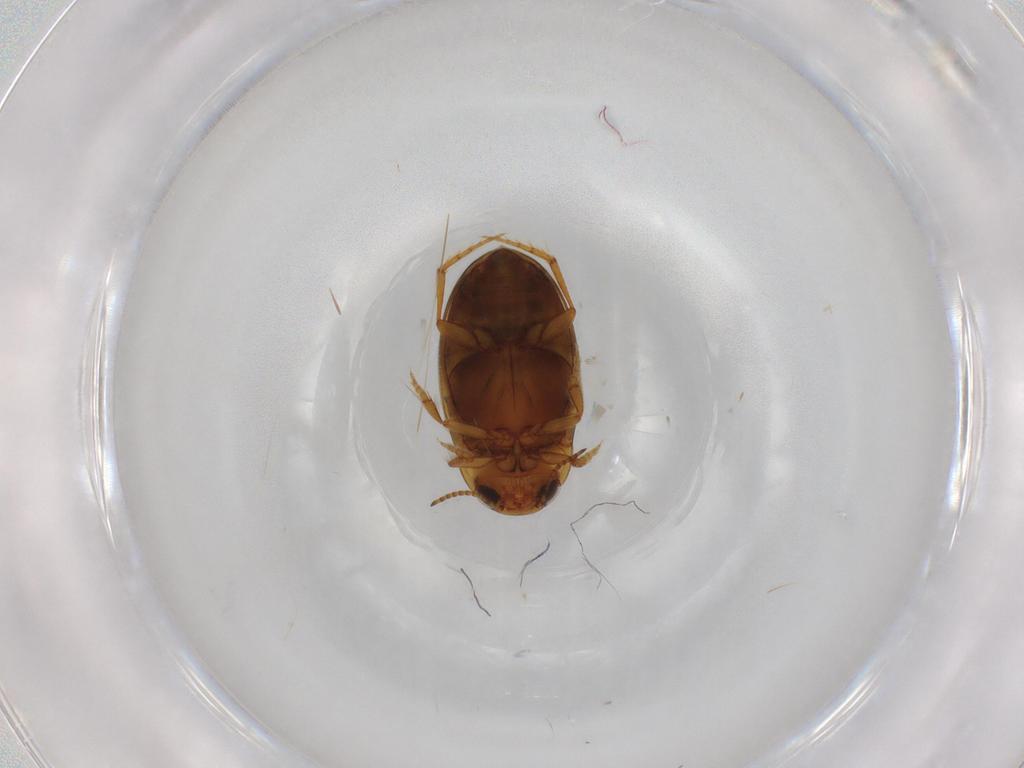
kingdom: Animalia
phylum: Arthropoda
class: Insecta
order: Coleoptera
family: Dytiscidae
